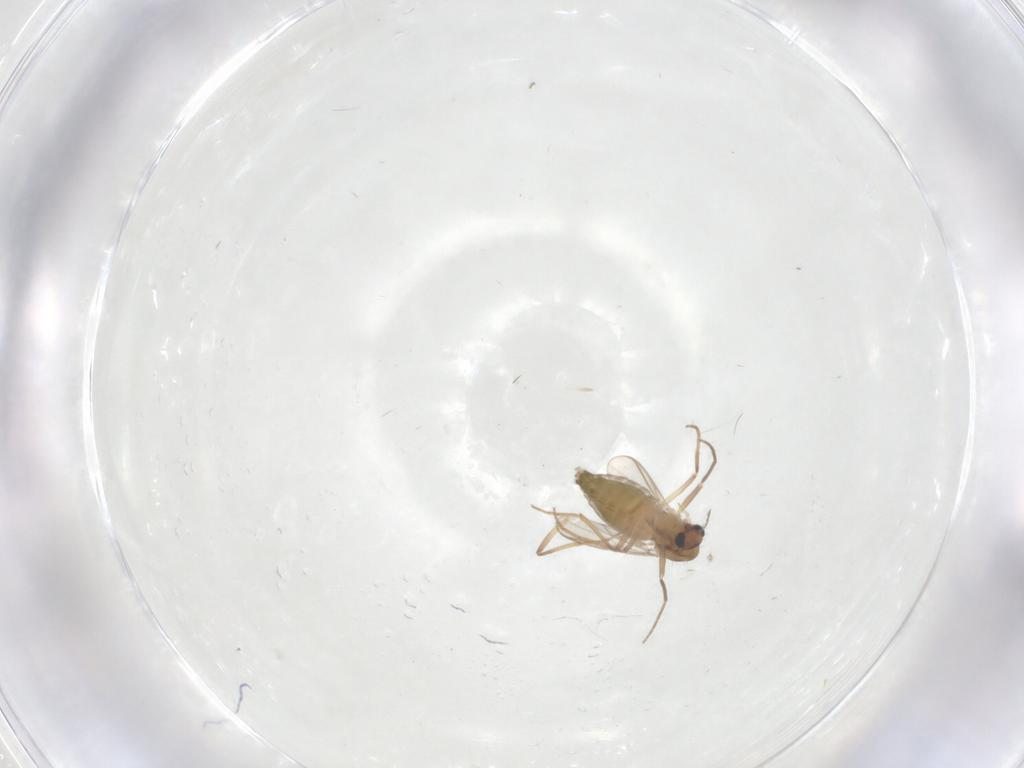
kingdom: Animalia
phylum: Arthropoda
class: Insecta
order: Diptera
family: Chironomidae
